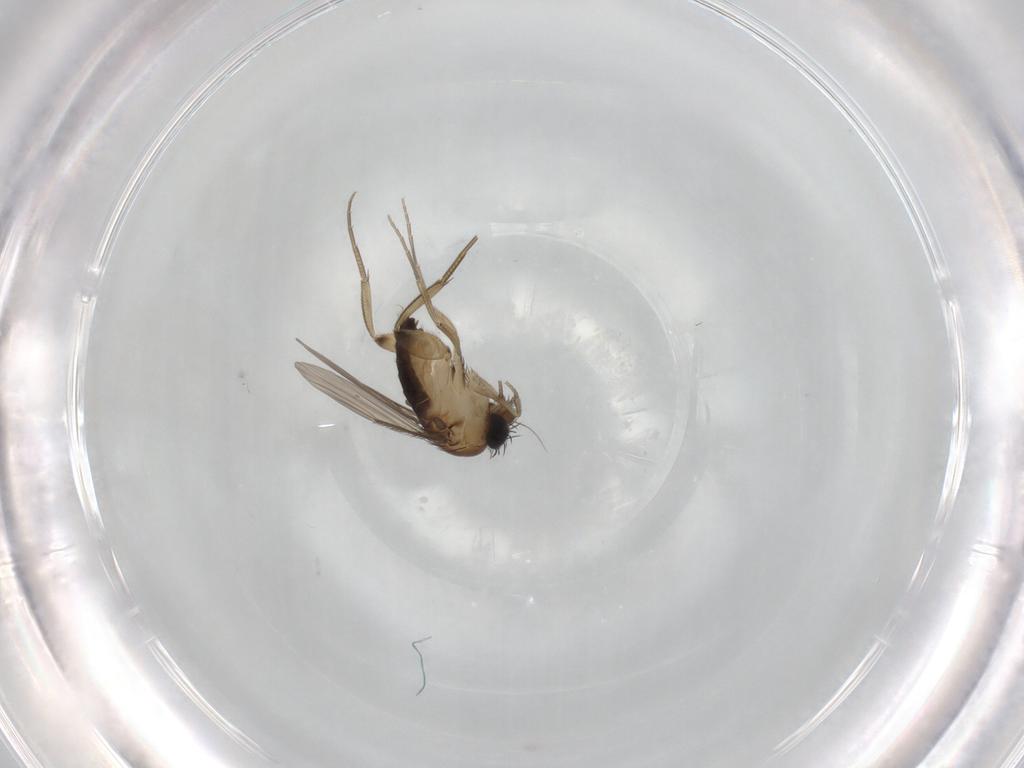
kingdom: Animalia
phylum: Arthropoda
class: Insecta
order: Diptera
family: Phoridae
